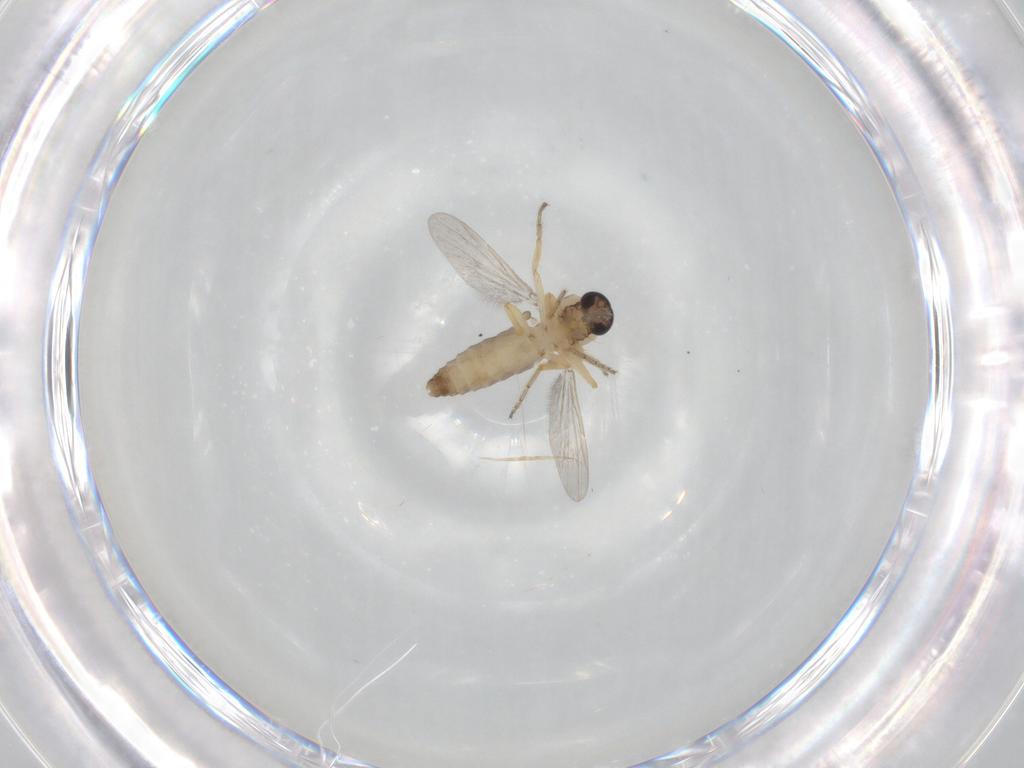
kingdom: Animalia
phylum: Arthropoda
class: Insecta
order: Diptera
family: Ceratopogonidae
